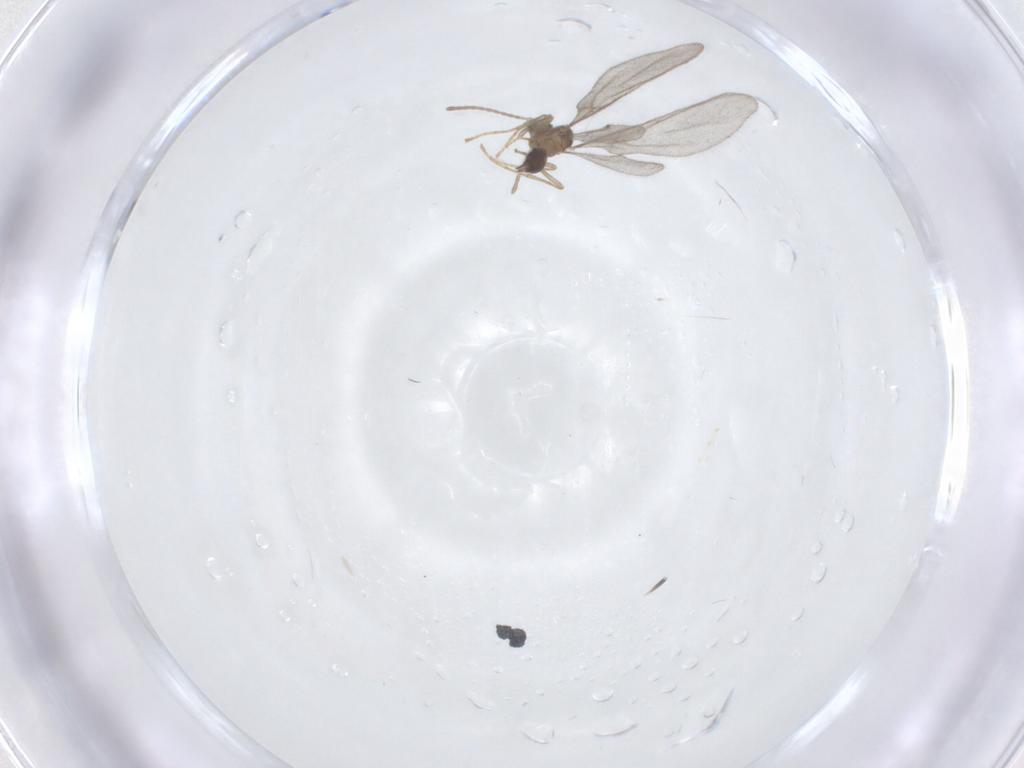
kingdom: Animalia
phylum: Arthropoda
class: Insecta
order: Hymenoptera
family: Formicidae
